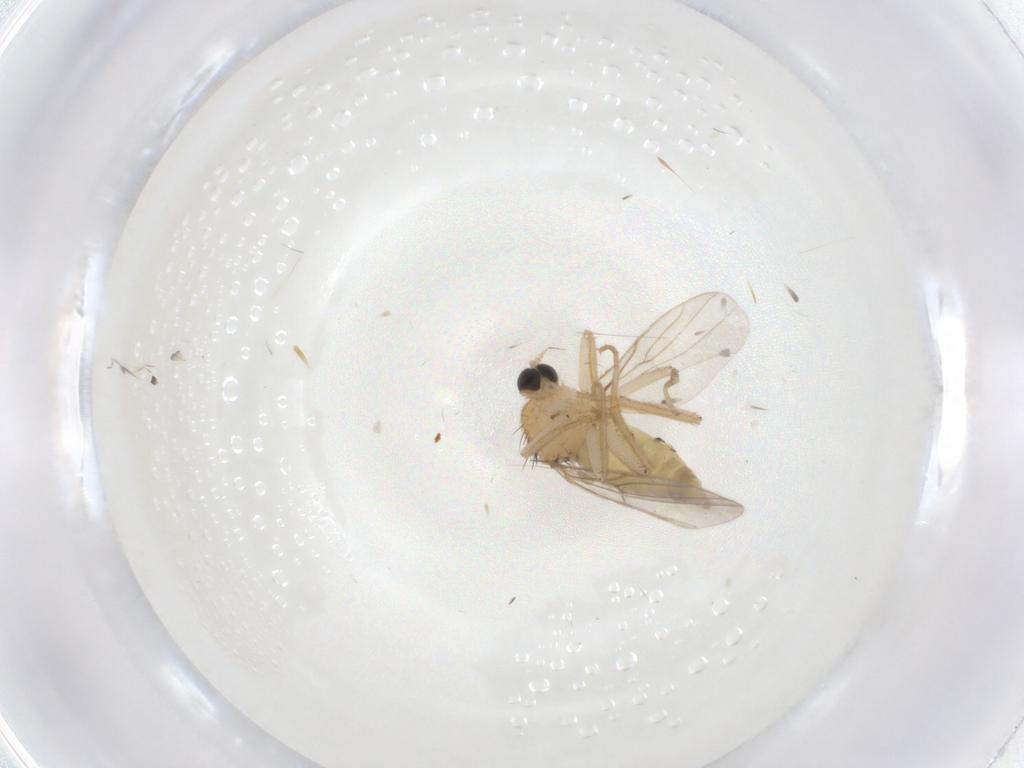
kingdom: Animalia
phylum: Arthropoda
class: Insecta
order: Diptera
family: Hybotidae
